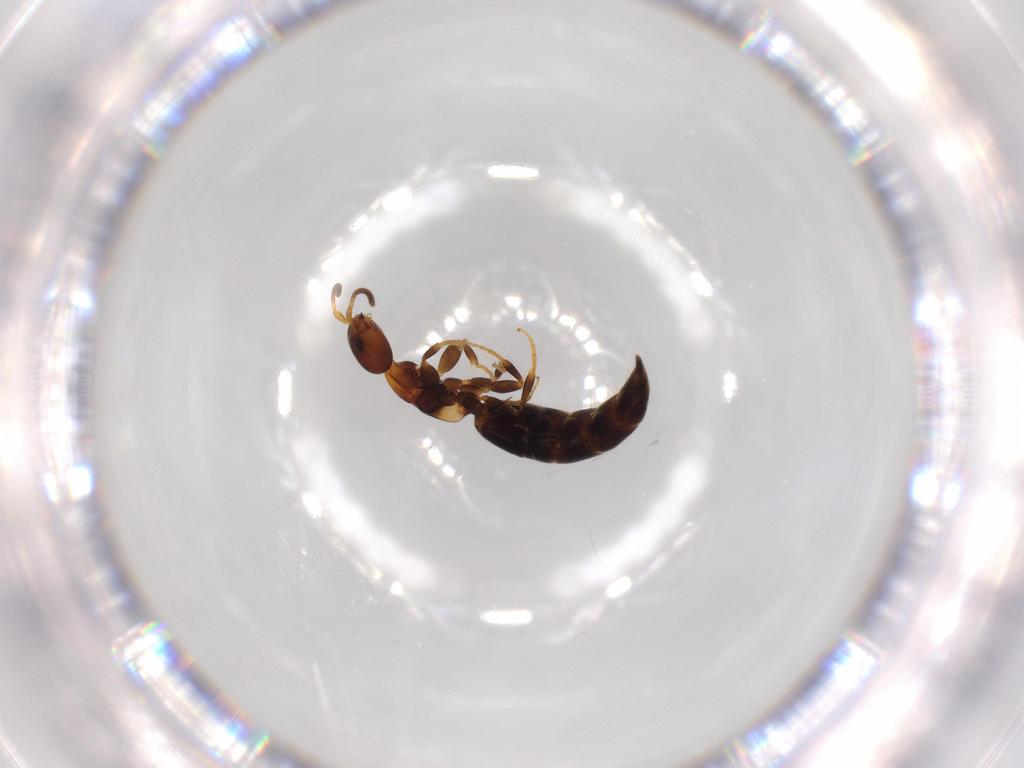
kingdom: Animalia
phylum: Arthropoda
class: Insecta
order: Hymenoptera
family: Bethylidae
